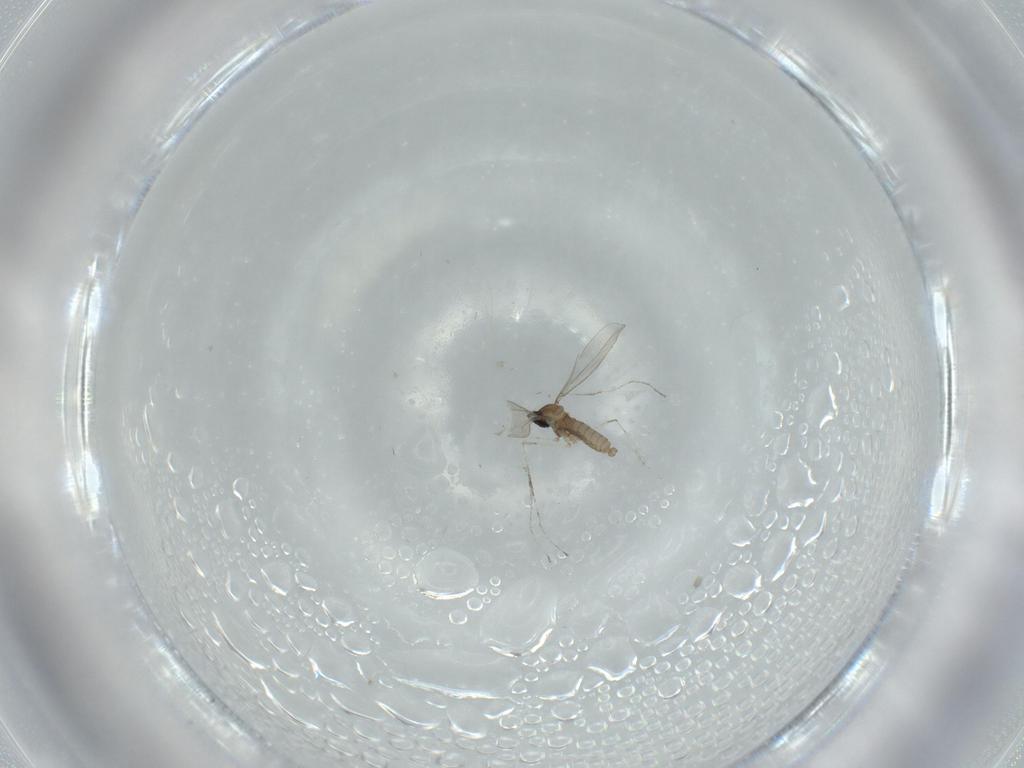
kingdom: Animalia
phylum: Arthropoda
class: Insecta
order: Diptera
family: Cecidomyiidae
